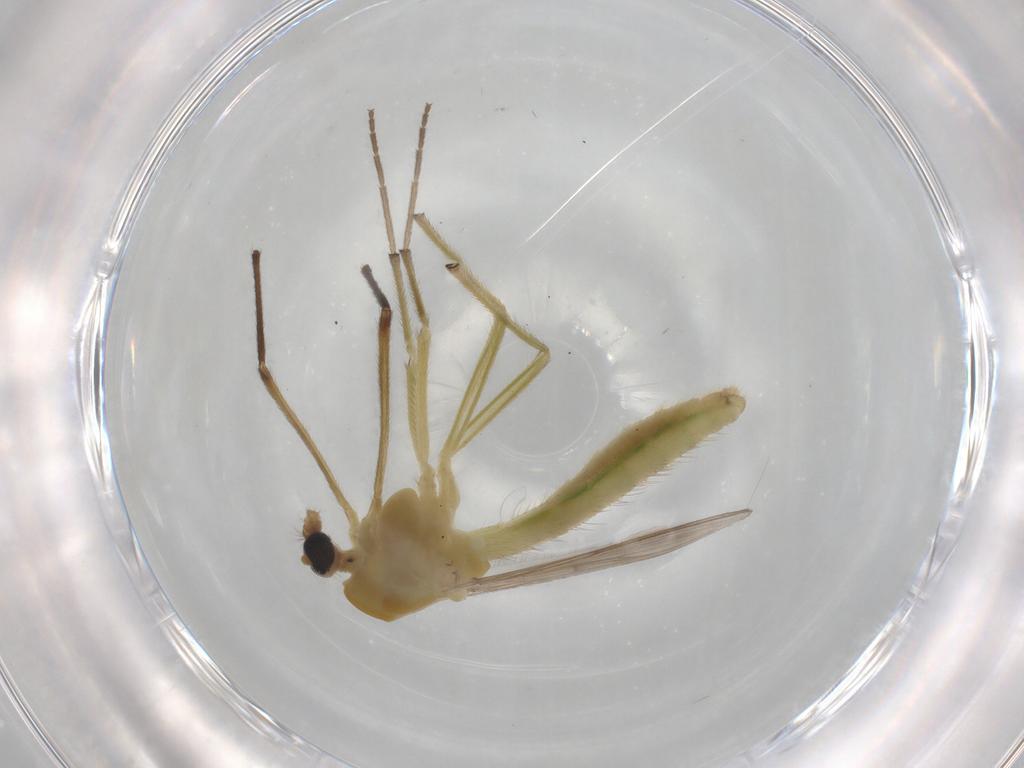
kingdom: Animalia
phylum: Arthropoda
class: Insecta
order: Diptera
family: Chironomidae
